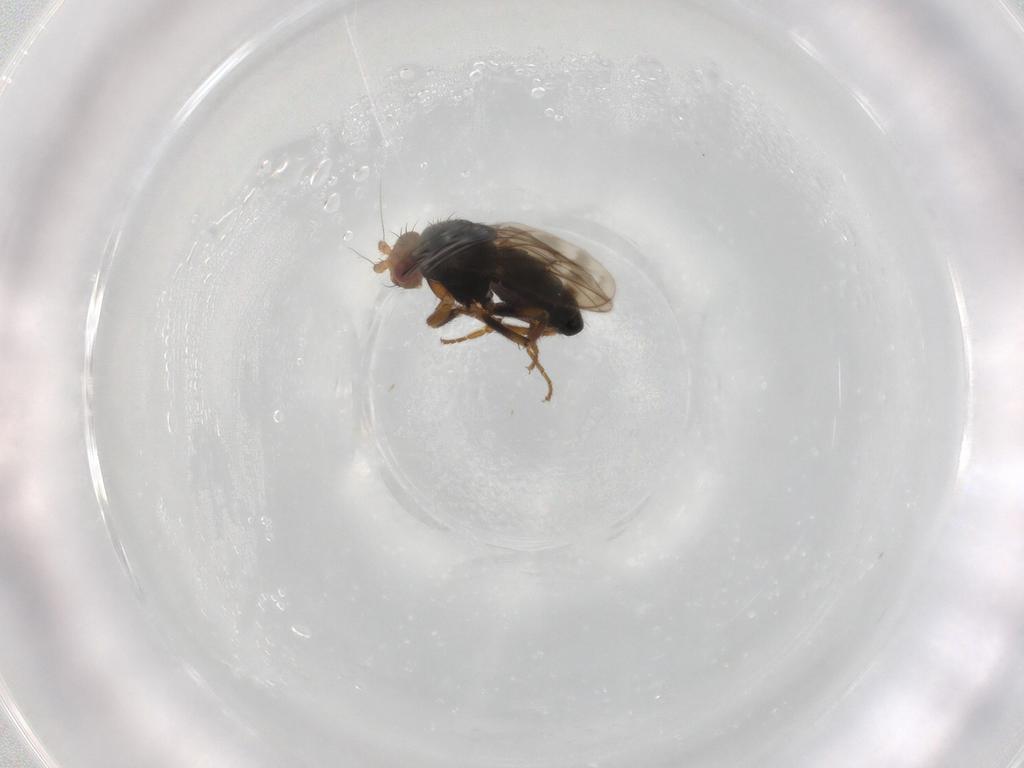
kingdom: Animalia
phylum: Arthropoda
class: Insecta
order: Diptera
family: Sphaeroceridae
